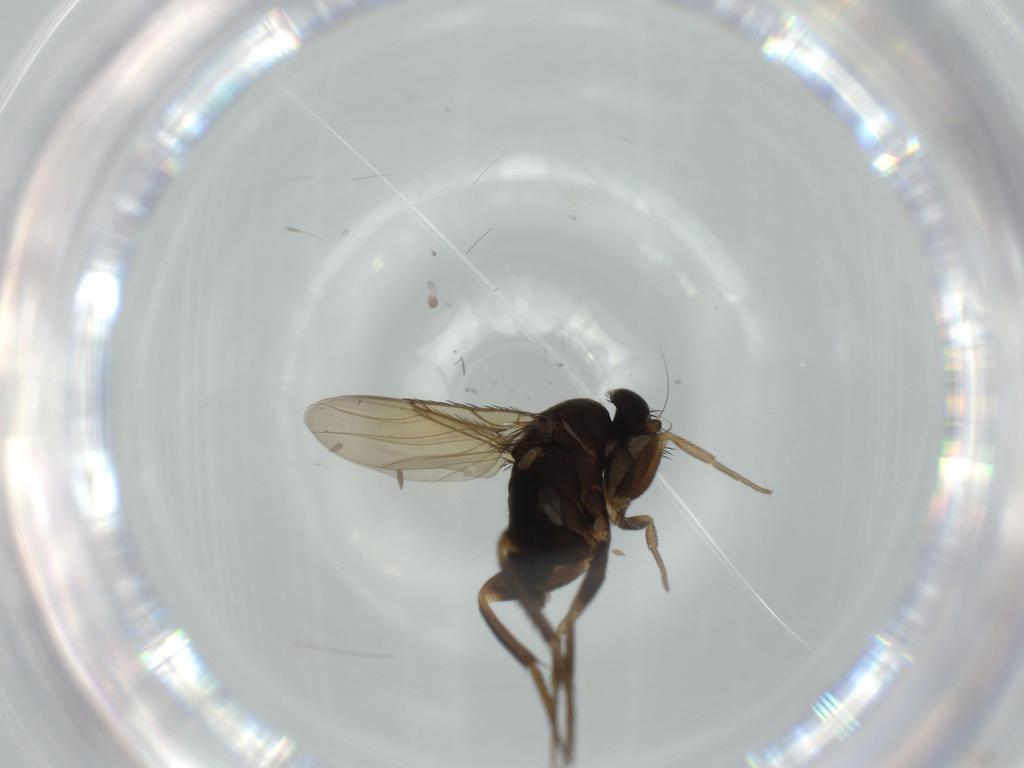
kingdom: Animalia
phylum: Arthropoda
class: Insecta
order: Diptera
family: Phoridae
